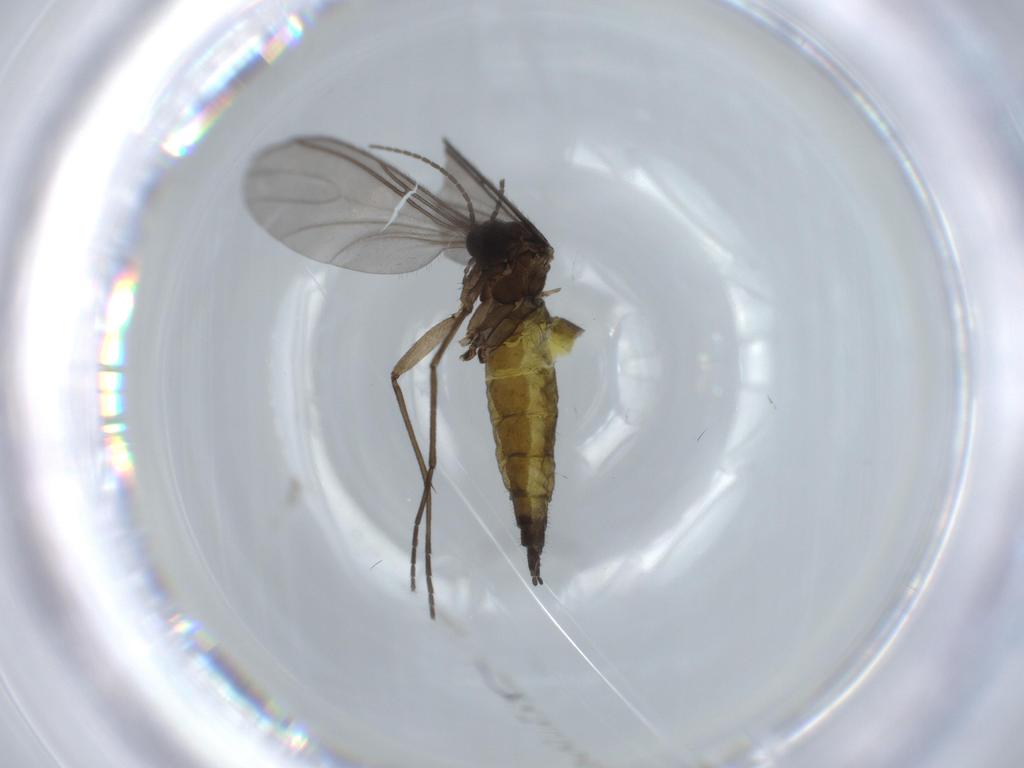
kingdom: Animalia
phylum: Arthropoda
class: Insecta
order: Diptera
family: Sciaridae
